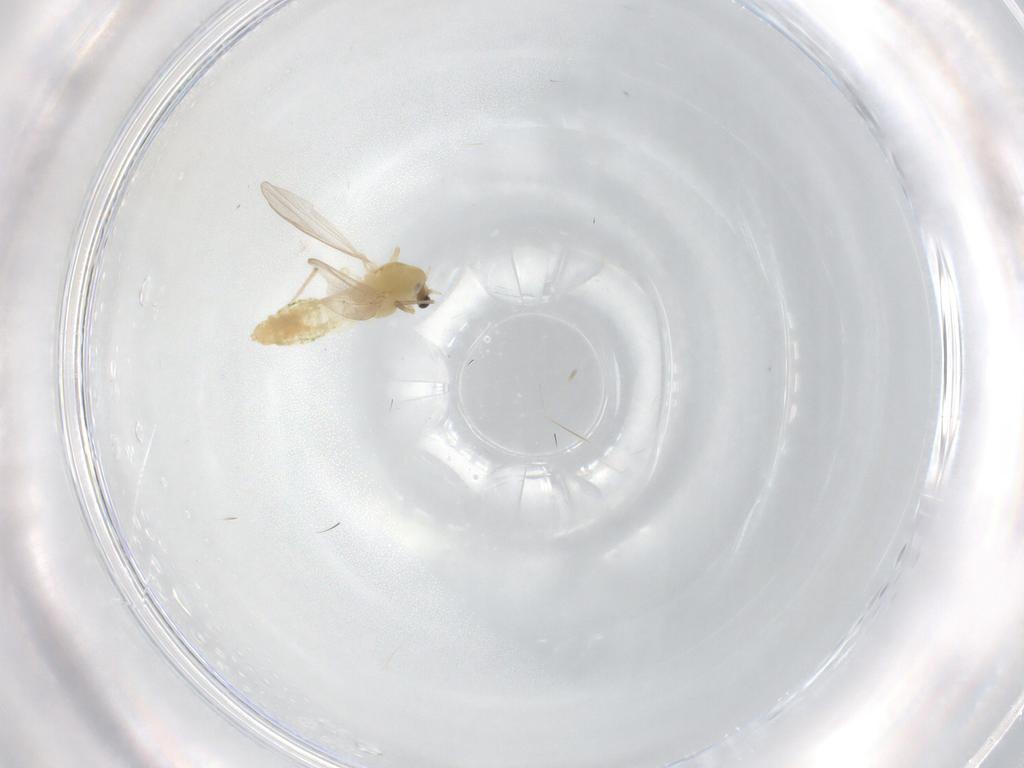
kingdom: Animalia
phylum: Arthropoda
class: Insecta
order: Diptera
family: Chironomidae
